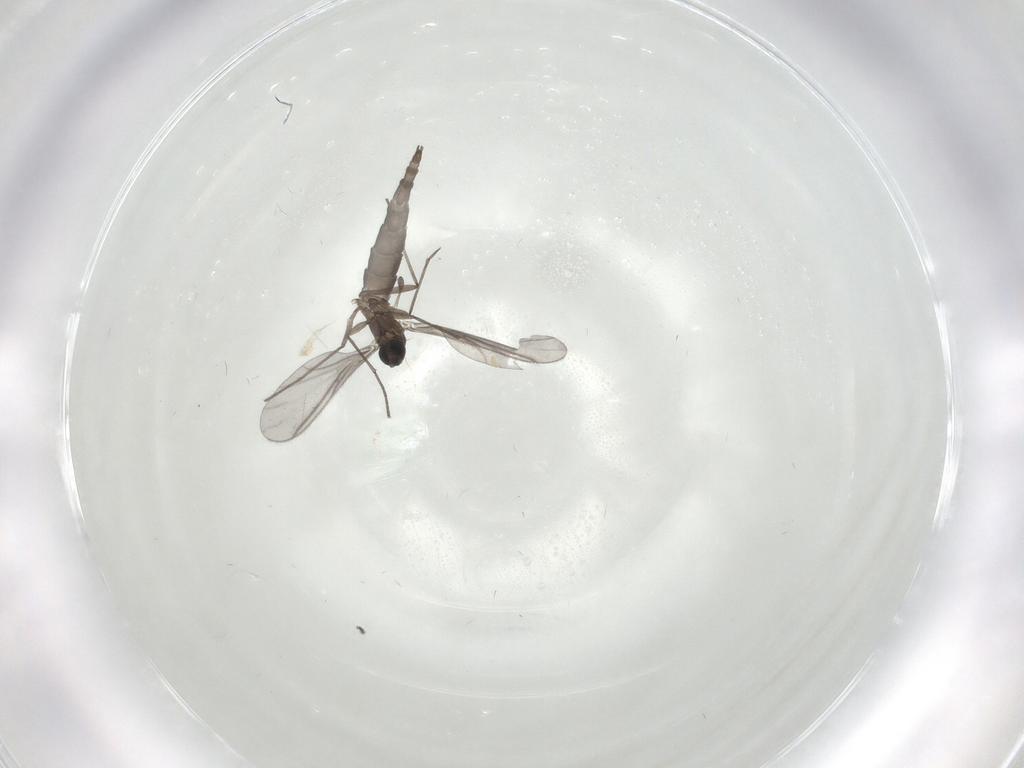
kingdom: Animalia
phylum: Arthropoda
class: Insecta
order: Diptera
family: Sciaridae
